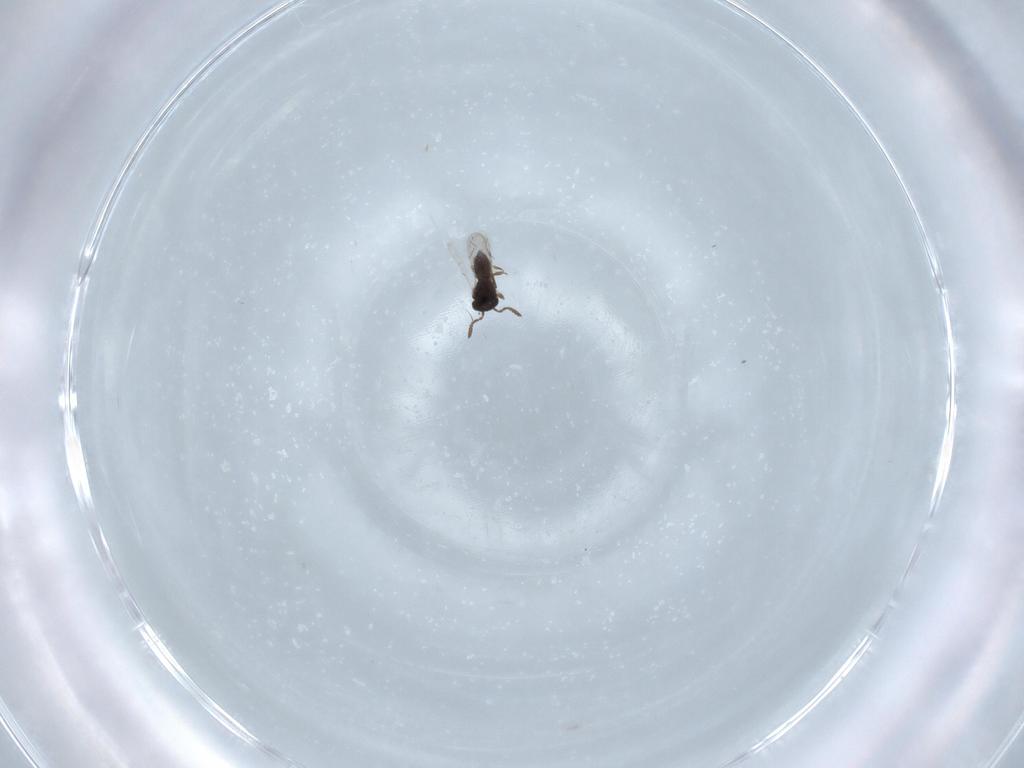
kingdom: Animalia
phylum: Arthropoda
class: Insecta
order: Hymenoptera
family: Scelionidae
